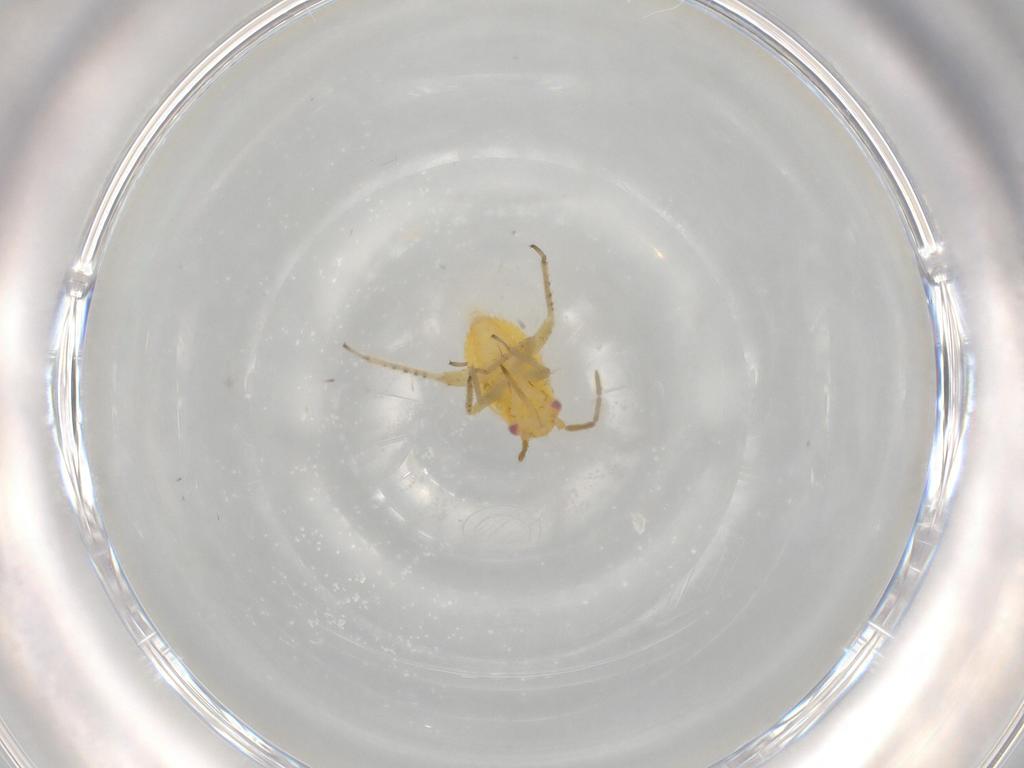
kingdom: Animalia
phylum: Arthropoda
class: Insecta
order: Hemiptera
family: Miridae
